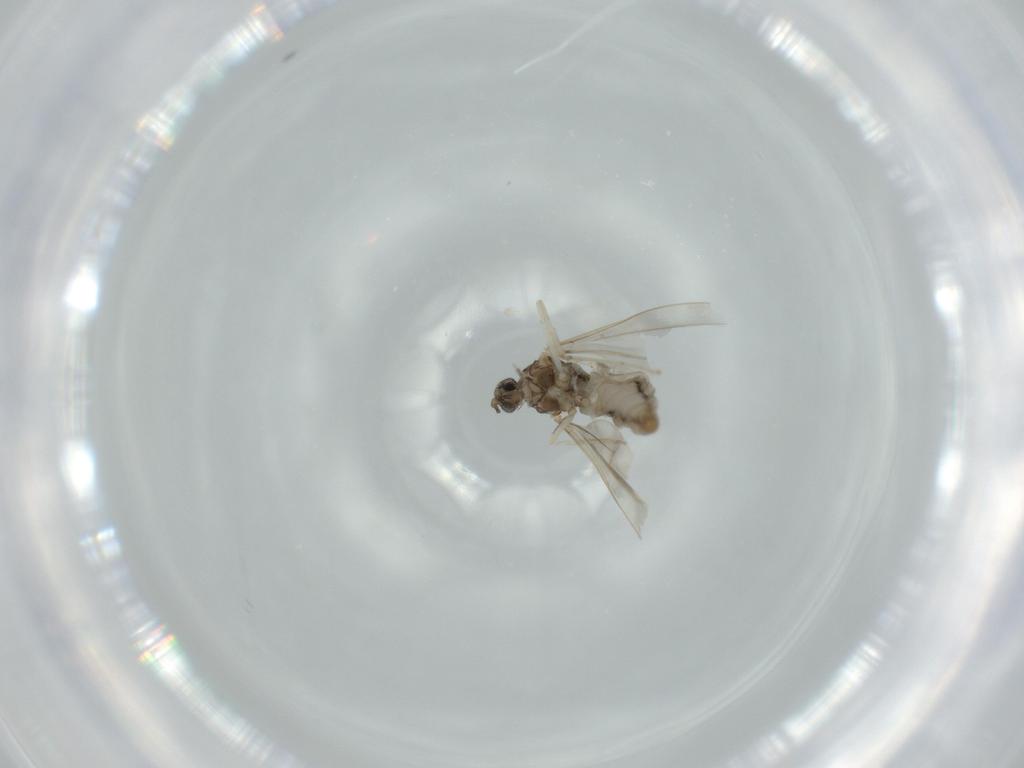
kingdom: Animalia
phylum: Arthropoda
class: Insecta
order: Diptera
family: Cecidomyiidae
